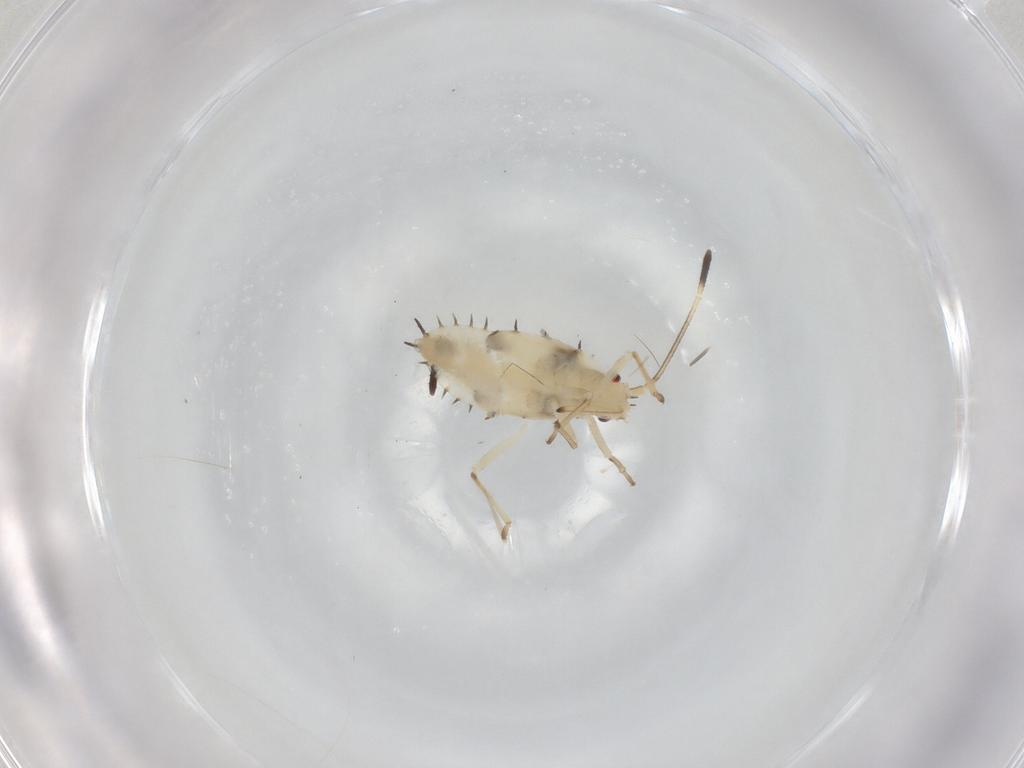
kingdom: Animalia
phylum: Arthropoda
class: Insecta
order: Hemiptera
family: Tingidae
